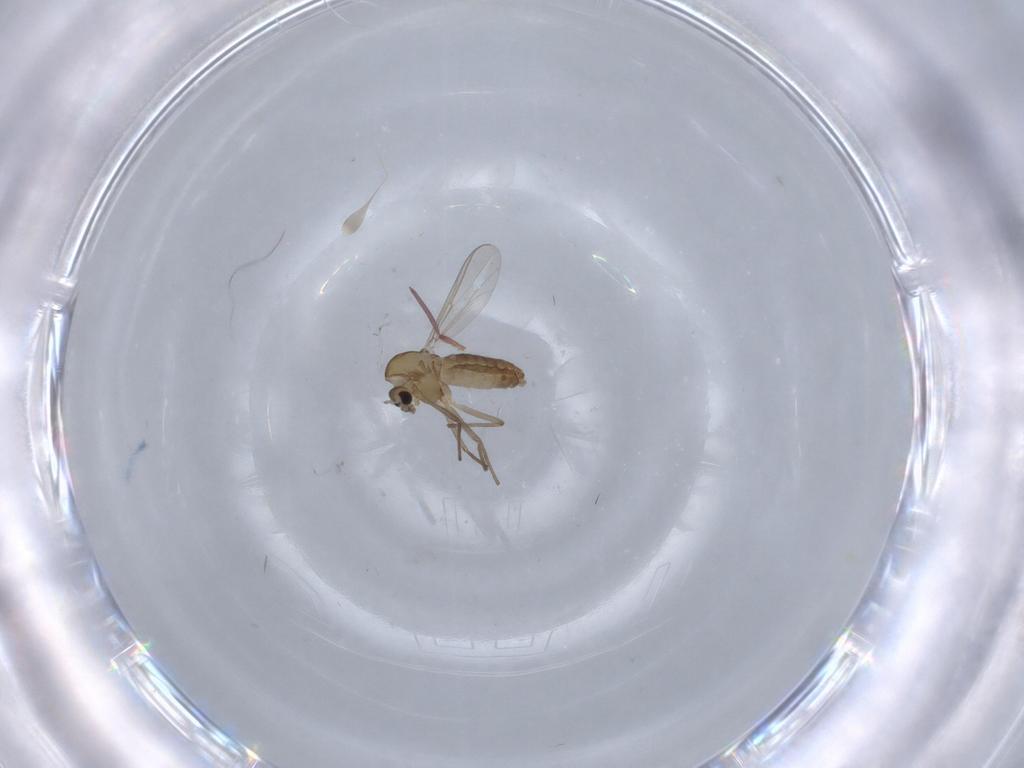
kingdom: Animalia
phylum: Arthropoda
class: Insecta
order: Diptera
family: Chironomidae
